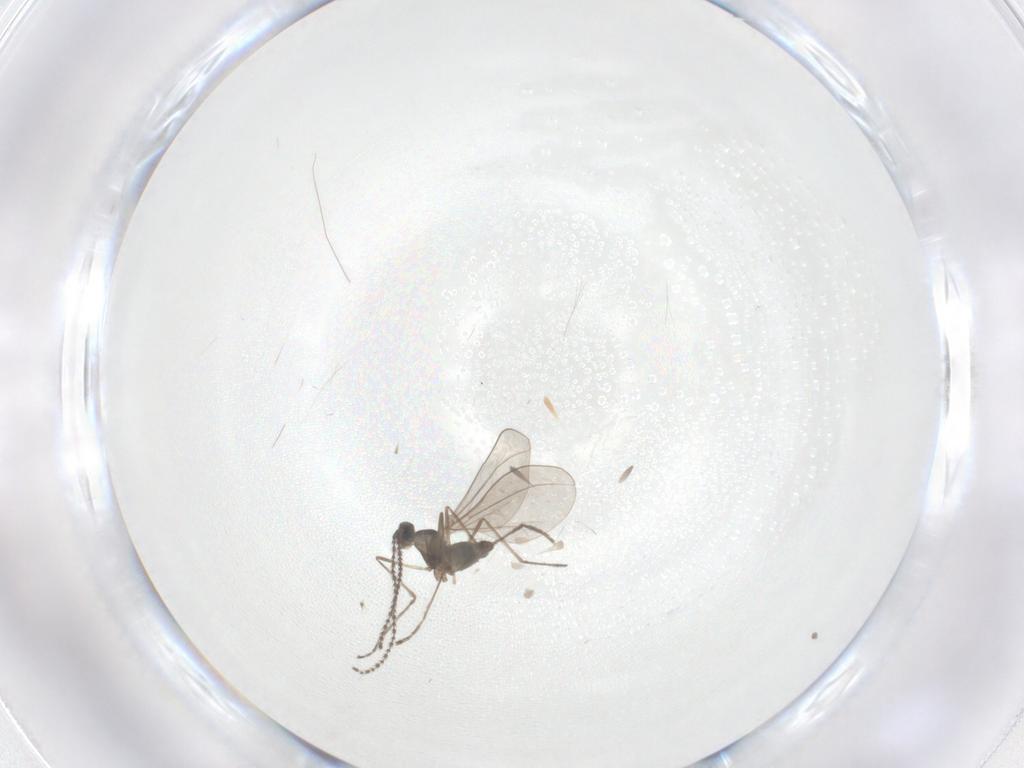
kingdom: Animalia
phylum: Arthropoda
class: Insecta
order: Diptera
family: Cecidomyiidae
